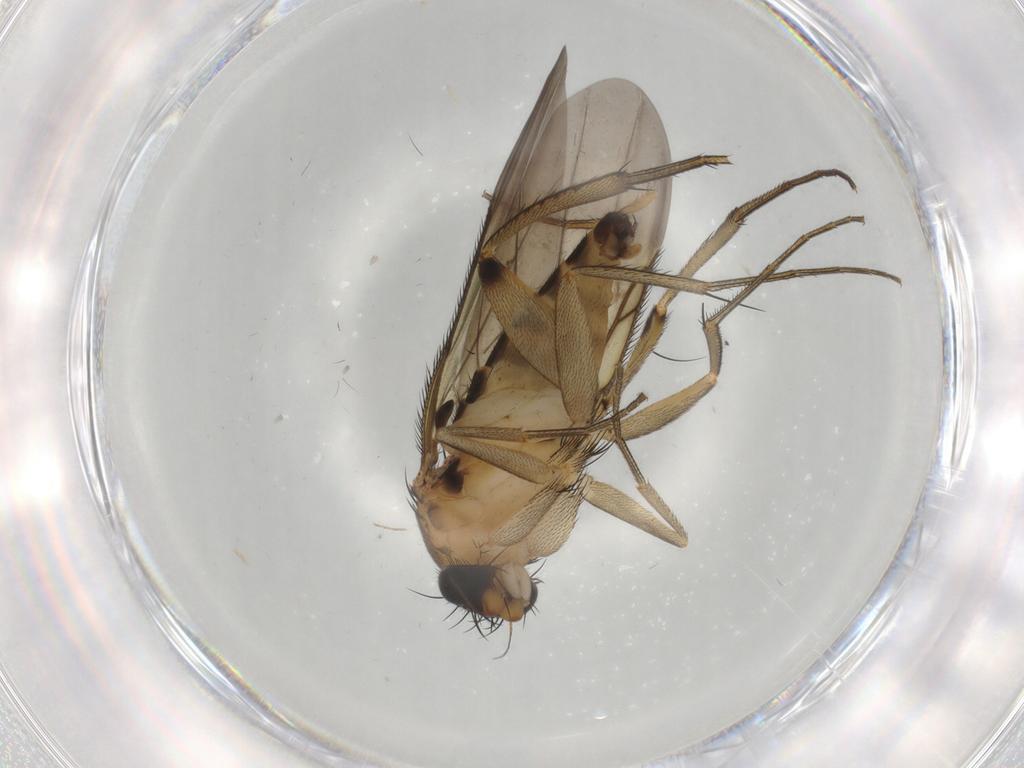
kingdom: Animalia
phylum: Arthropoda
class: Insecta
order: Diptera
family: Phoridae
